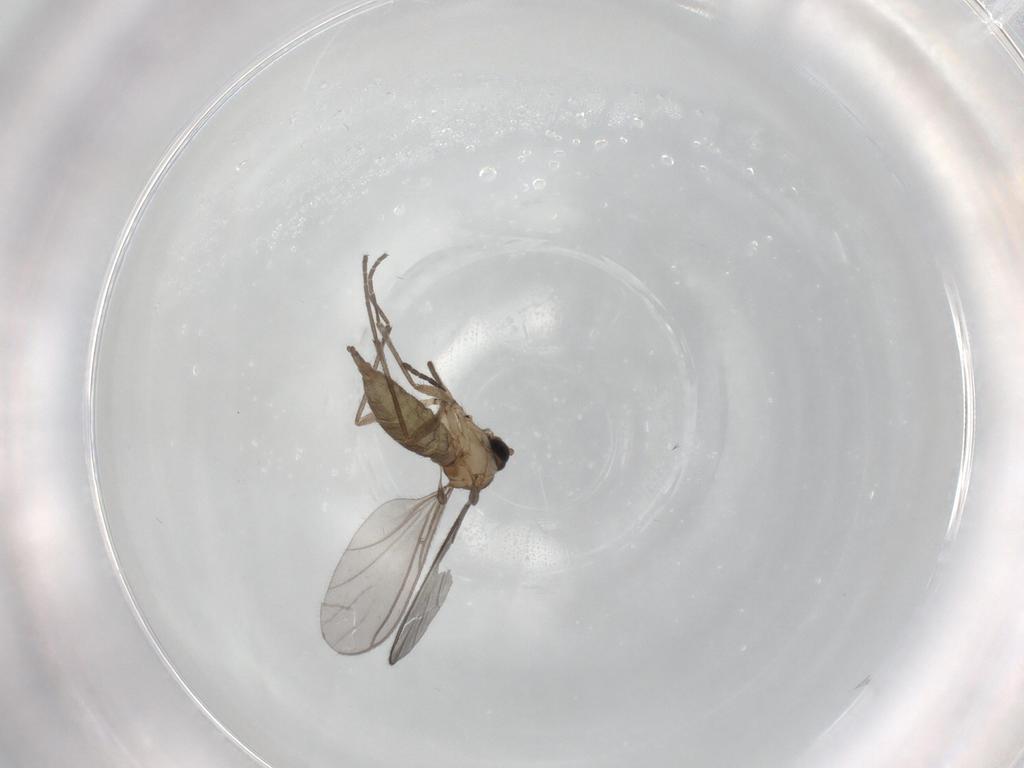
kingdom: Animalia
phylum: Arthropoda
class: Insecta
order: Diptera
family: Sciaridae
